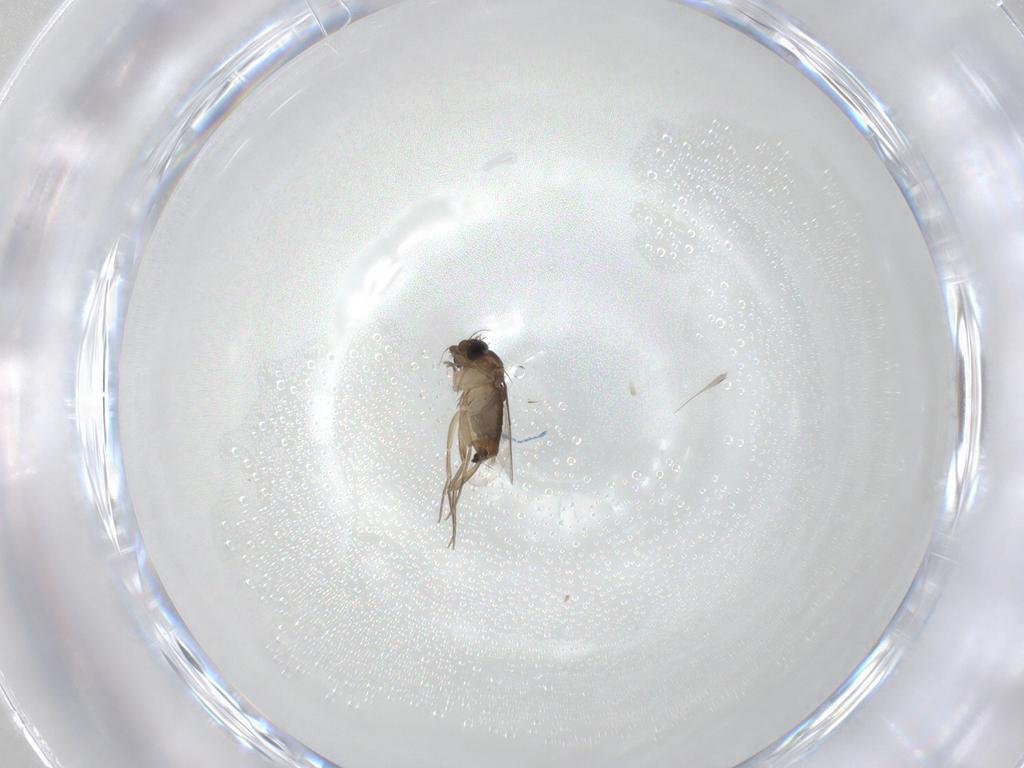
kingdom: Animalia
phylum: Arthropoda
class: Insecta
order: Diptera
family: Phoridae
